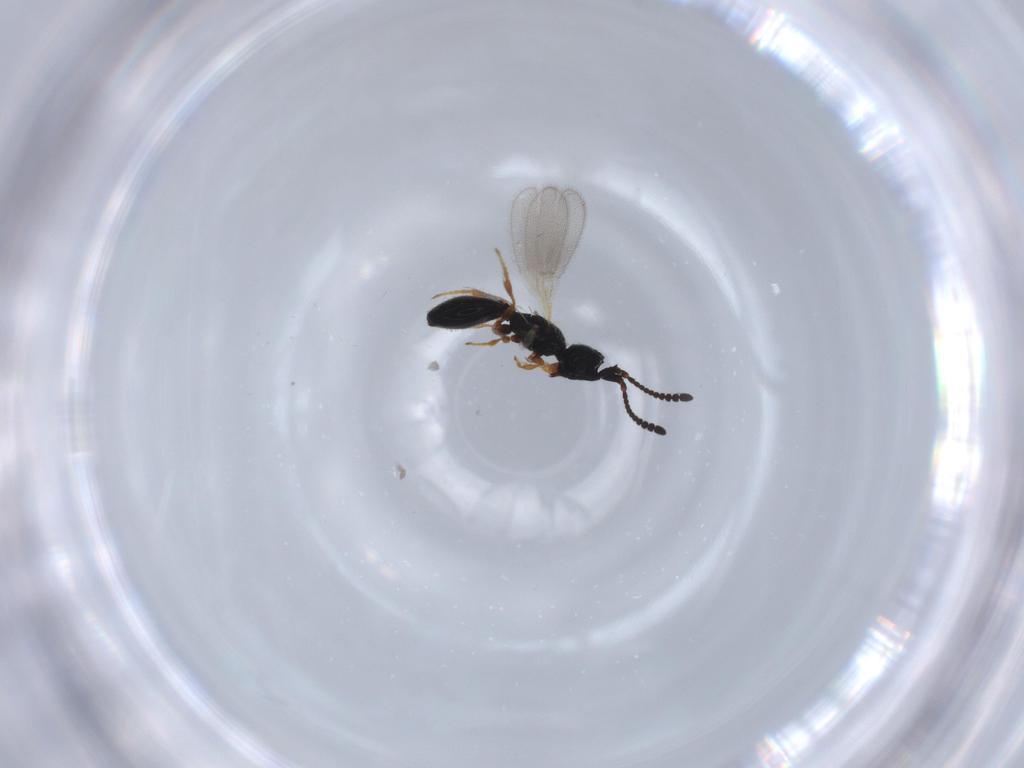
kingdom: Animalia
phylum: Arthropoda
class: Insecta
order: Hymenoptera
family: Diapriidae
